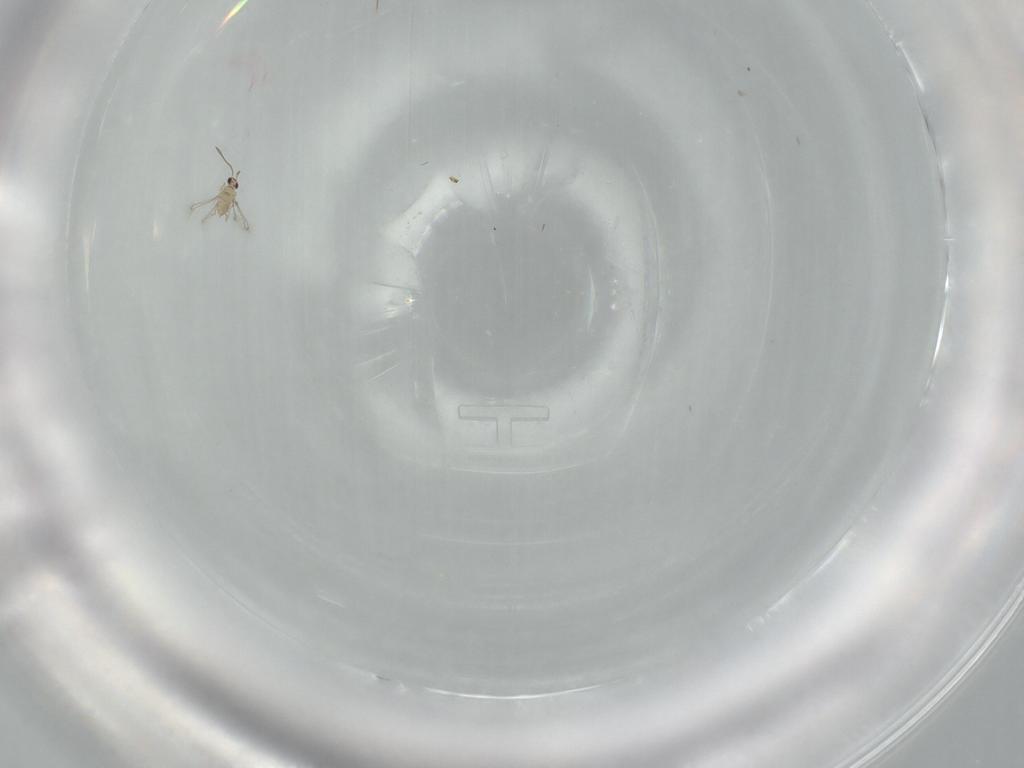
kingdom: Animalia
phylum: Arthropoda
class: Insecta
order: Hymenoptera
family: Mymaridae
